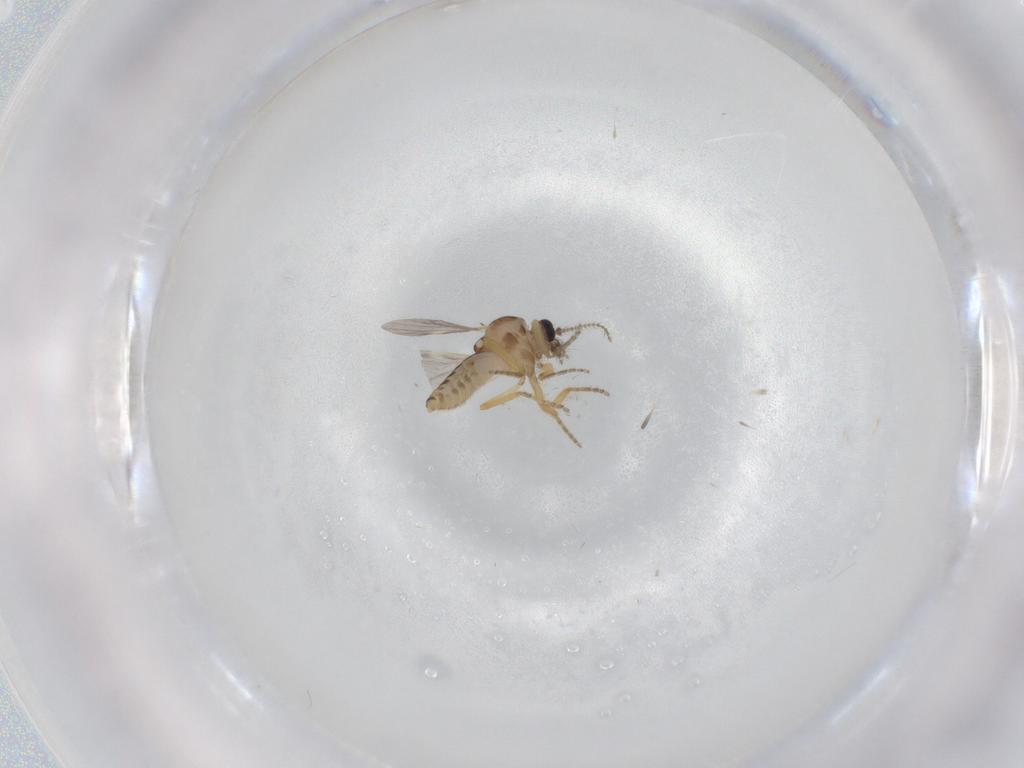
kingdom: Animalia
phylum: Arthropoda
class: Insecta
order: Diptera
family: Ceratopogonidae
